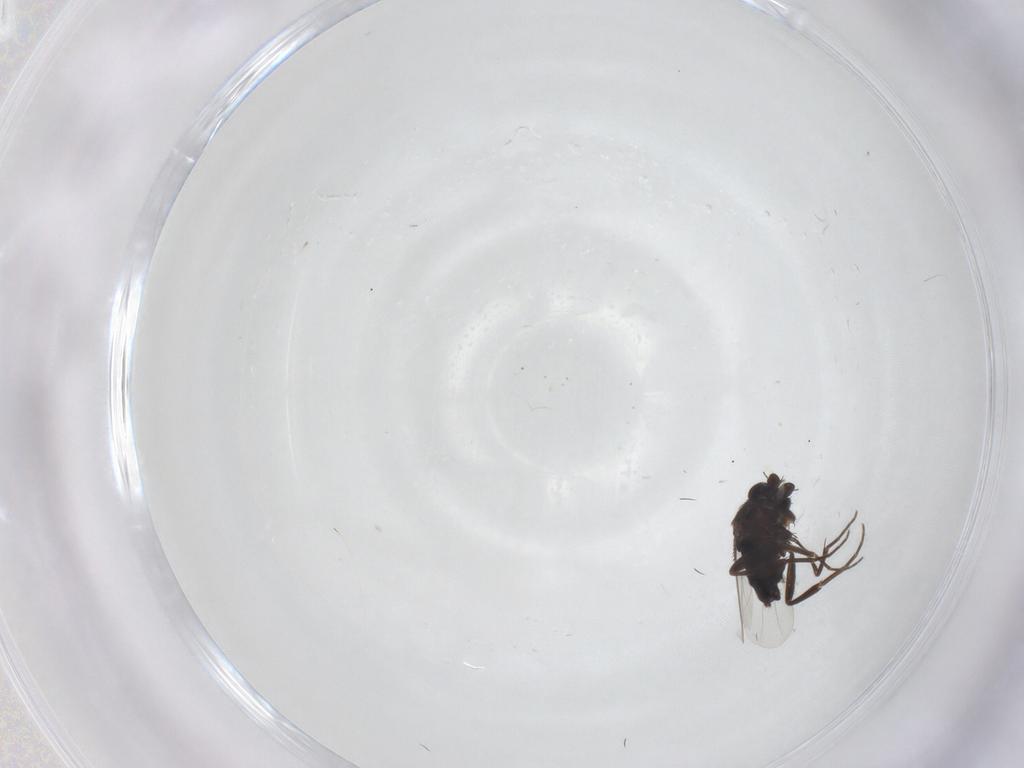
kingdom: Animalia
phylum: Arthropoda
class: Insecta
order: Diptera
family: Phoridae
